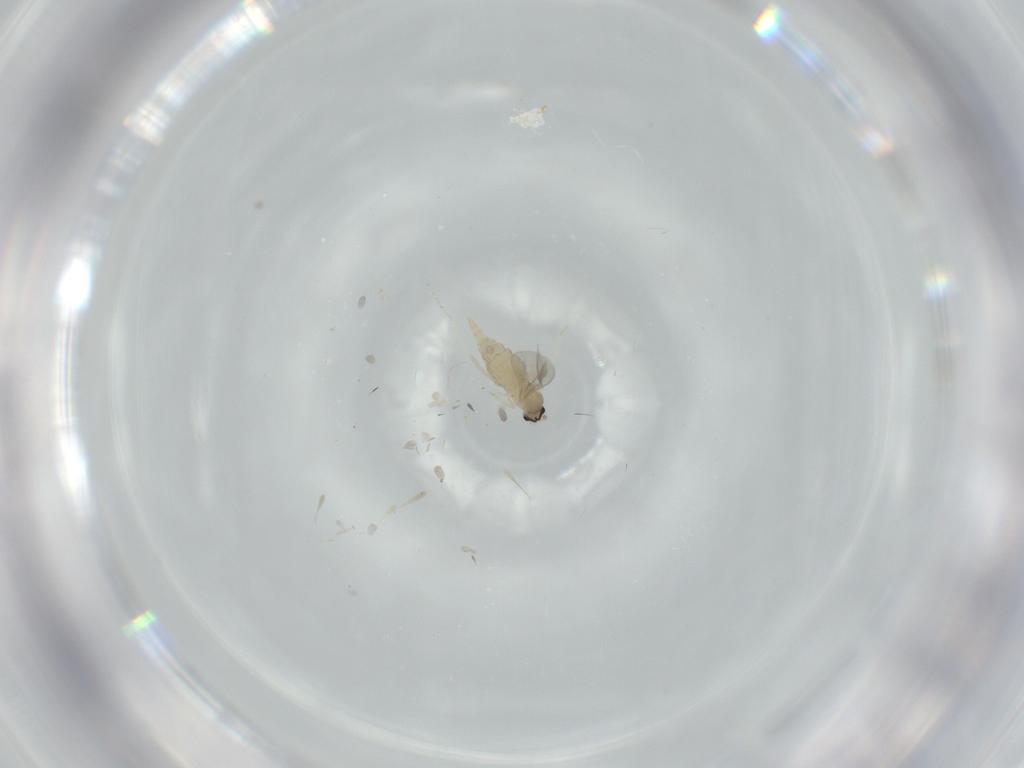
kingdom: Animalia
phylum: Arthropoda
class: Insecta
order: Diptera
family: Cecidomyiidae
